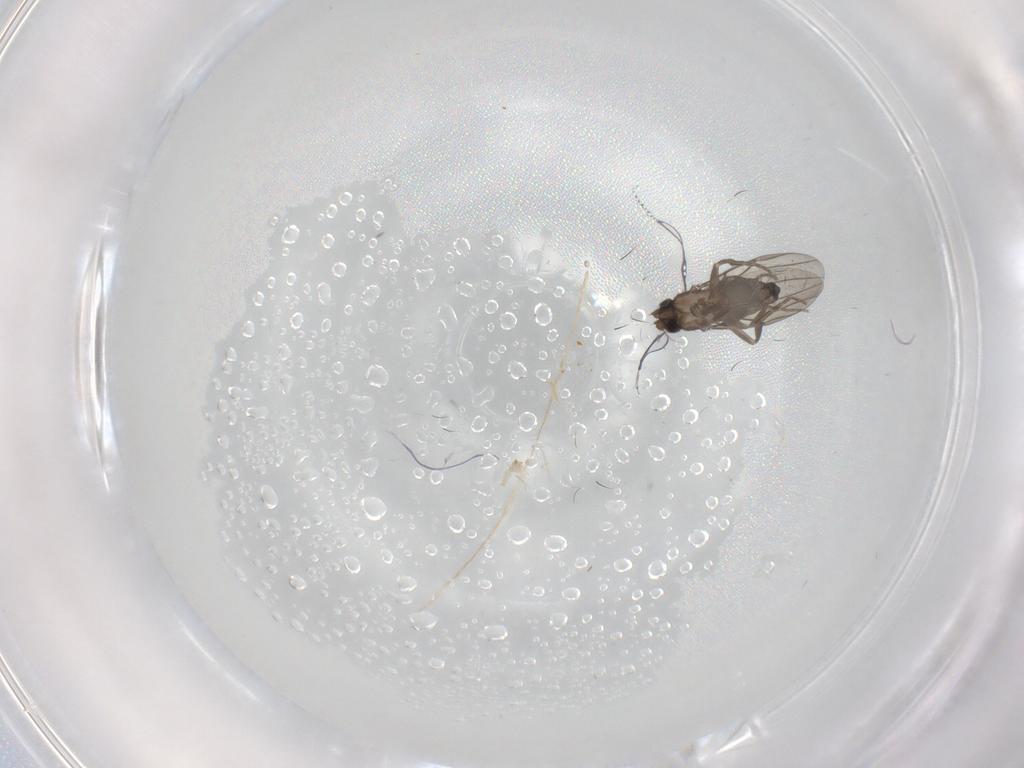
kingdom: Animalia
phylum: Arthropoda
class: Insecta
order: Diptera
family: Phoridae
